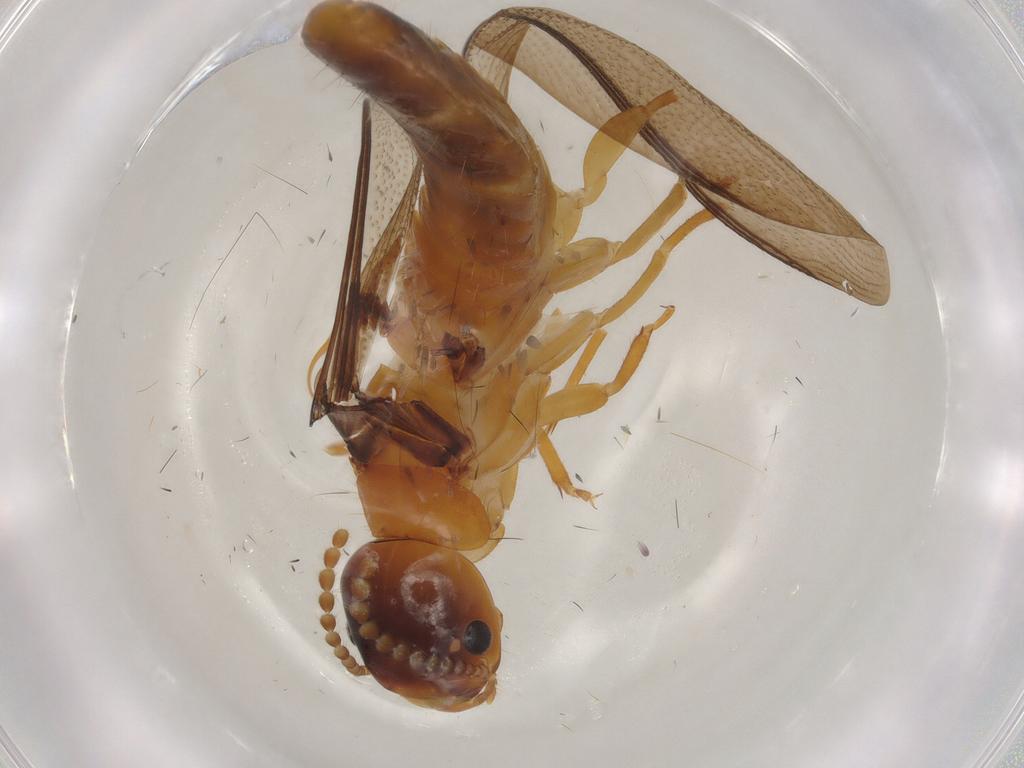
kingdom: Animalia
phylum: Arthropoda
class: Insecta
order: Blattodea
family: Kalotermitidae
